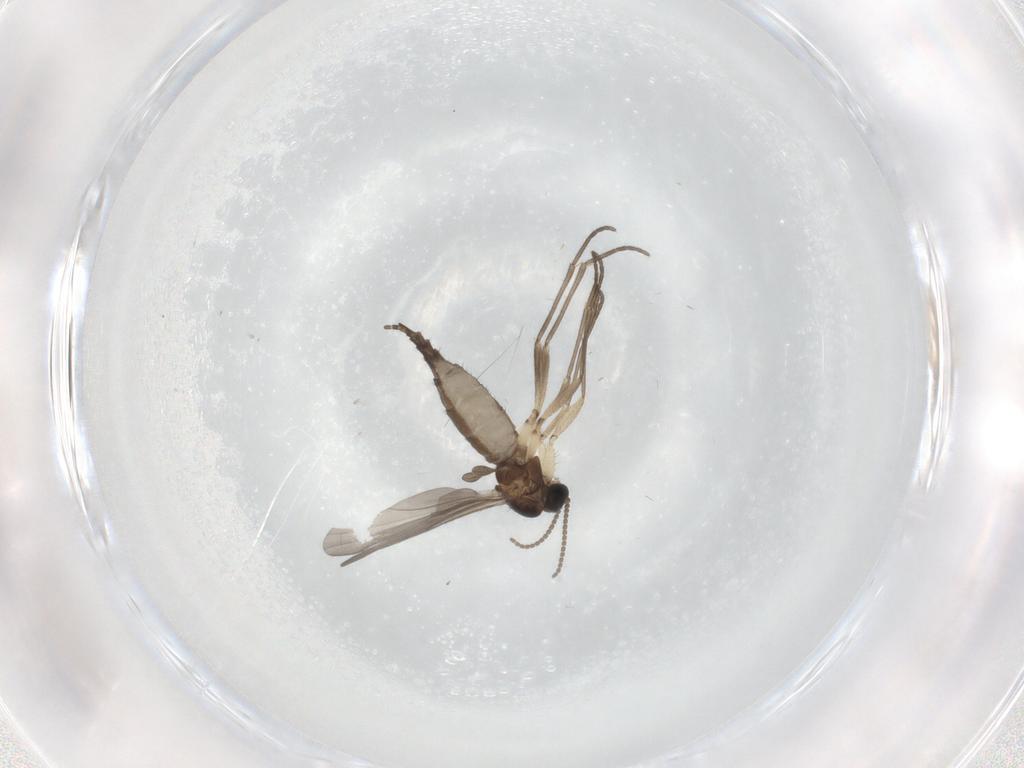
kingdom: Animalia
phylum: Arthropoda
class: Insecta
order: Diptera
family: Sciaridae
